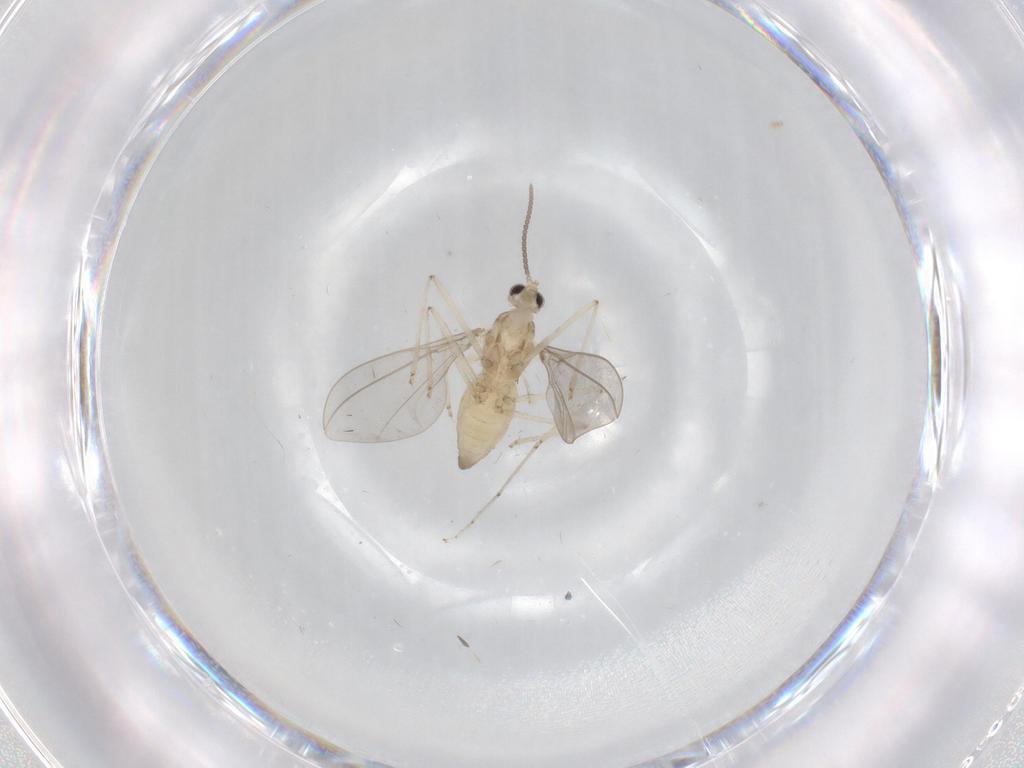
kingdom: Animalia
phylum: Arthropoda
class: Insecta
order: Diptera
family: Cecidomyiidae
